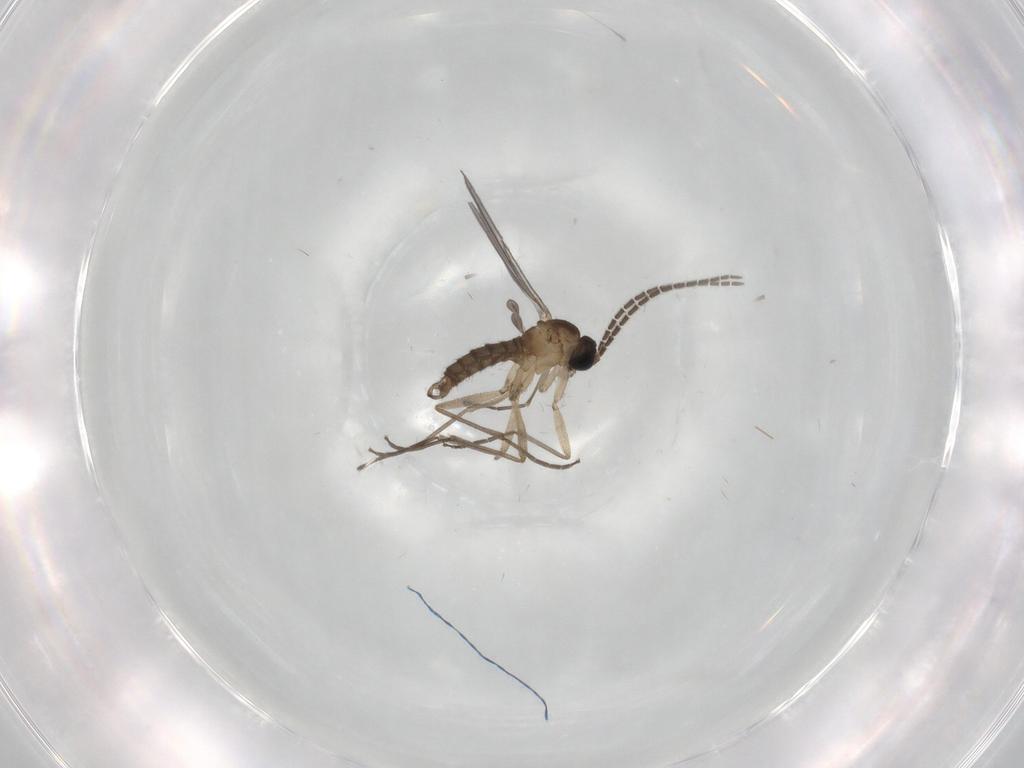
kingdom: Animalia
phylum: Arthropoda
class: Insecta
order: Diptera
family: Sciaridae
